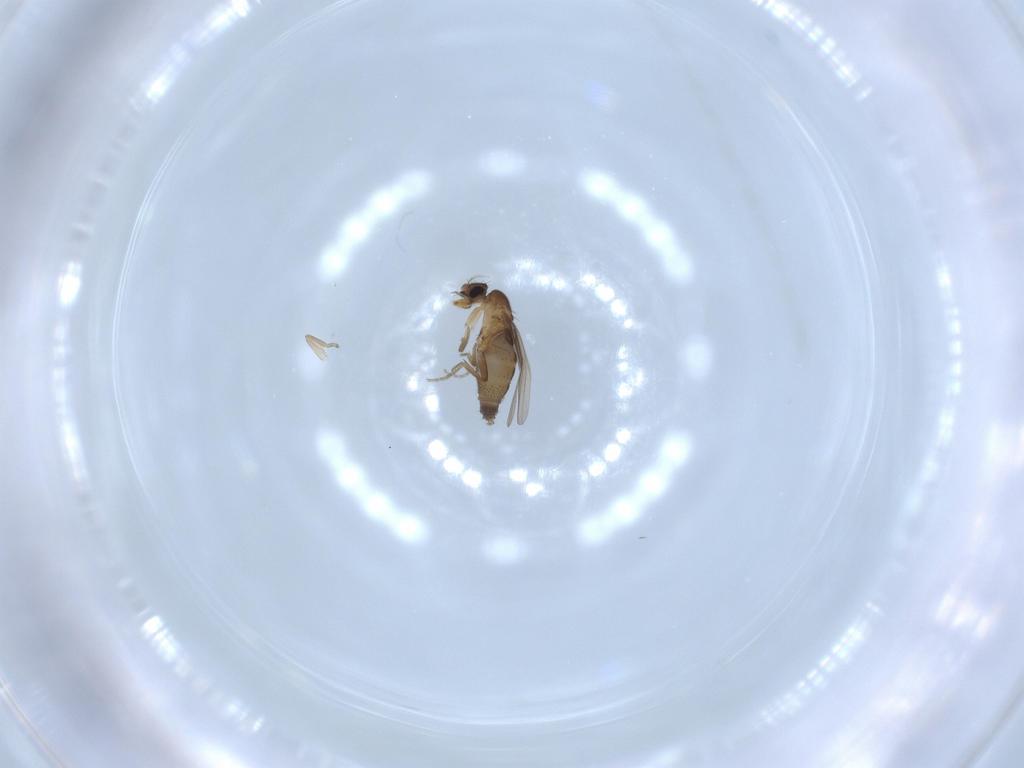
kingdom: Animalia
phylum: Arthropoda
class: Insecta
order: Diptera
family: Phoridae
